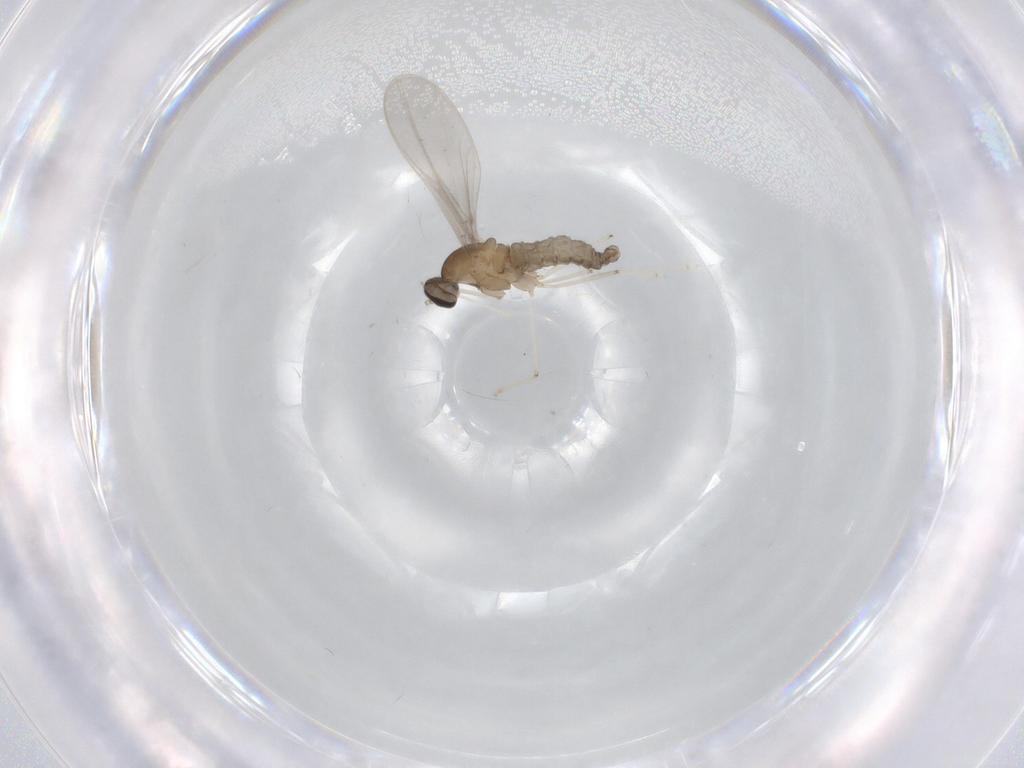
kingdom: Animalia
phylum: Arthropoda
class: Insecta
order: Diptera
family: Cecidomyiidae
